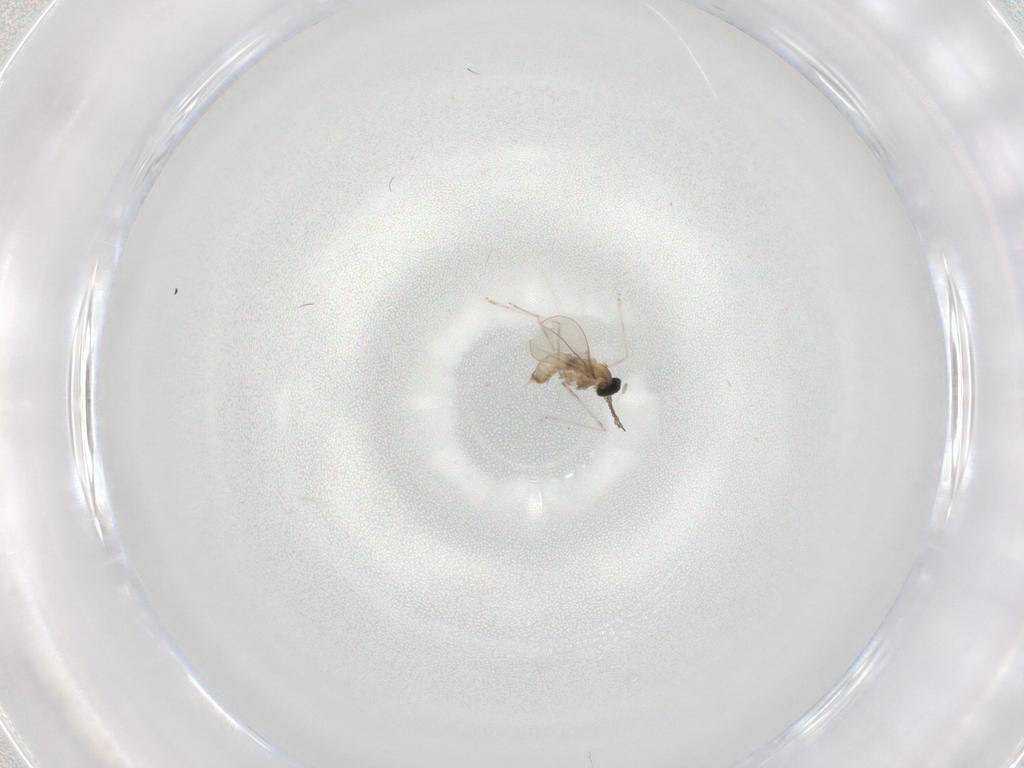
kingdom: Animalia
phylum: Arthropoda
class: Insecta
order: Diptera
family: Cecidomyiidae
